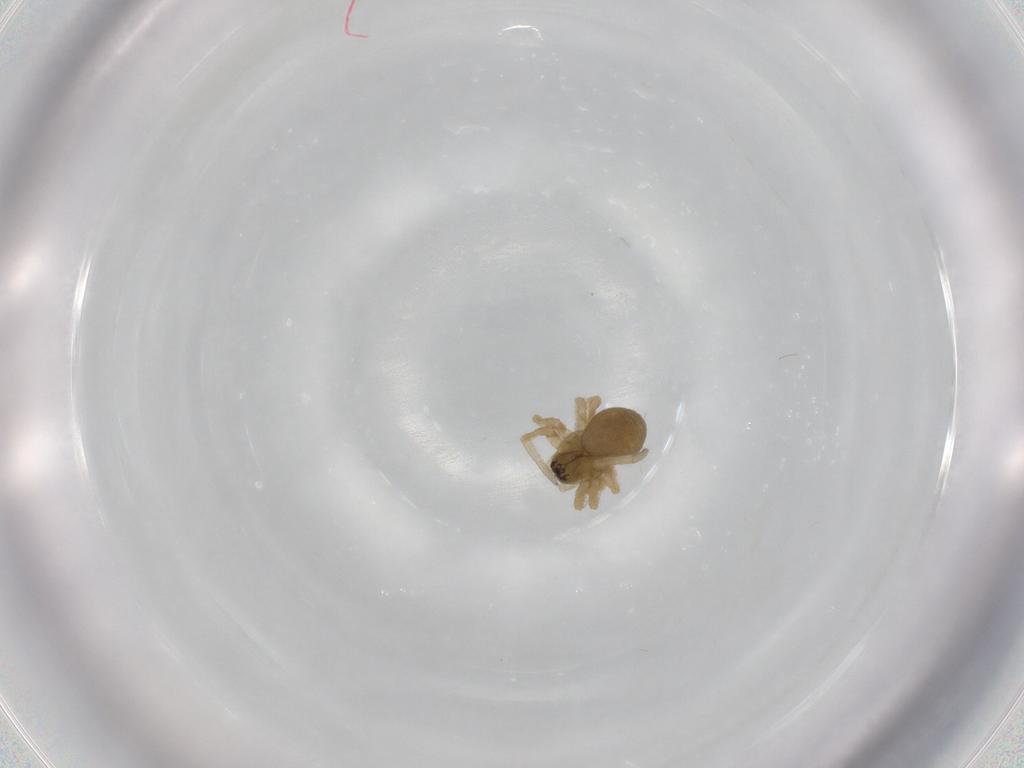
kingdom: Animalia
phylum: Arthropoda
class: Arachnida
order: Araneae
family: Linyphiidae
